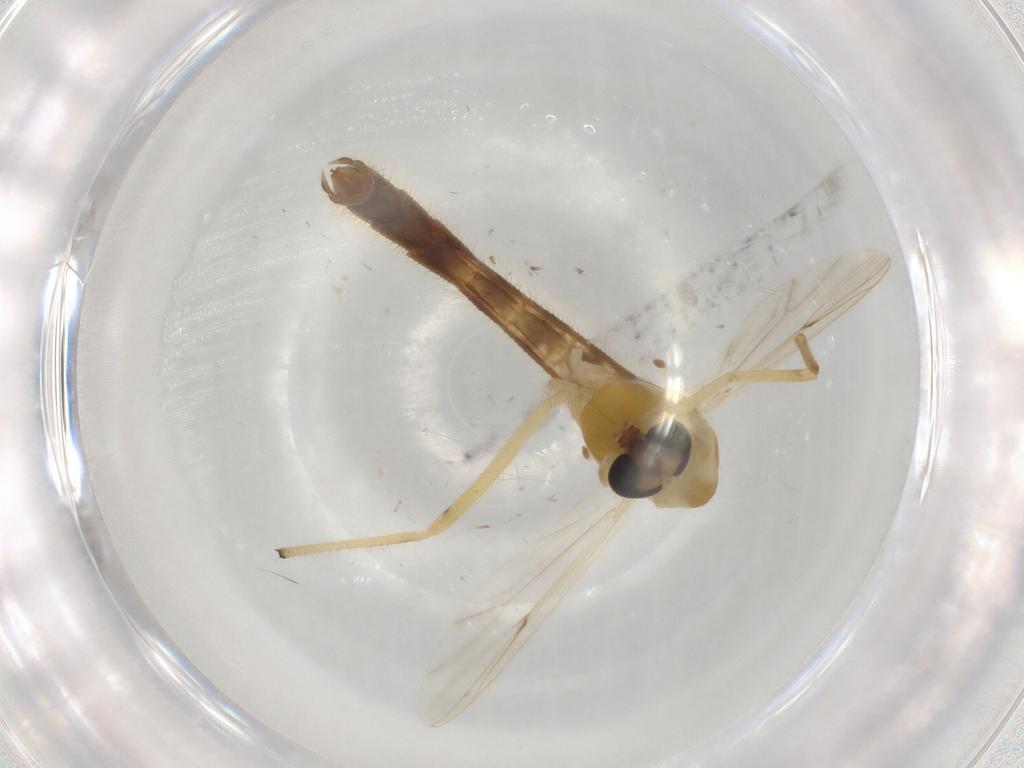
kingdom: Animalia
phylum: Arthropoda
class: Insecta
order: Diptera
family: Chironomidae
